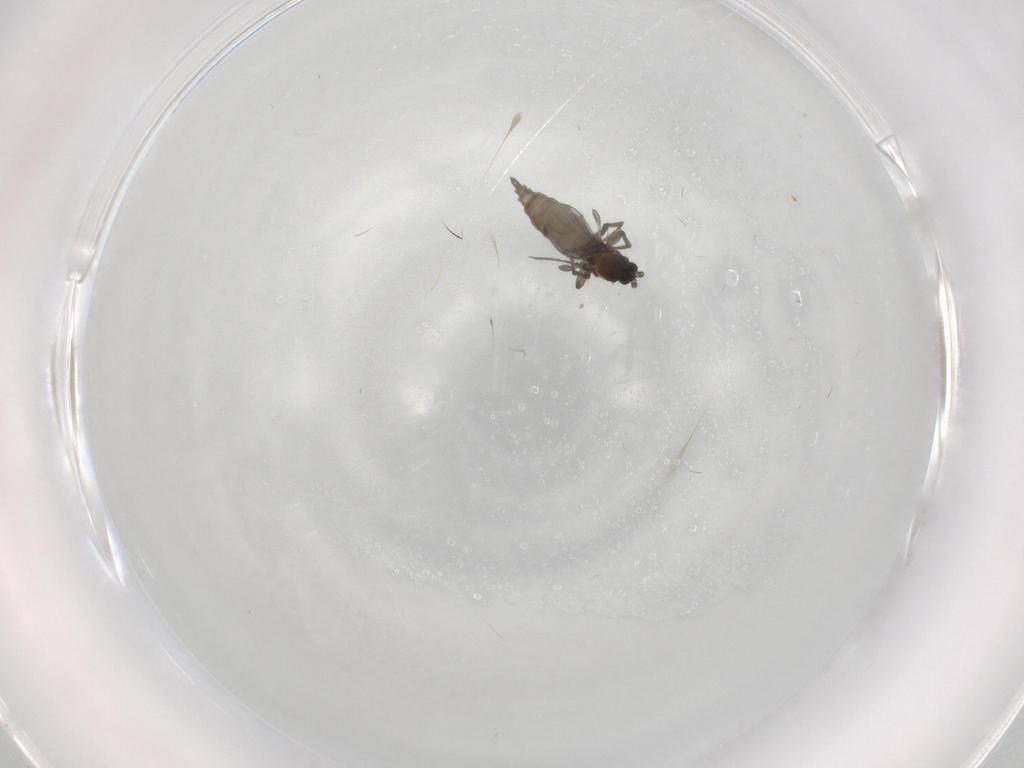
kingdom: Animalia
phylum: Arthropoda
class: Insecta
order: Diptera
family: Sciaridae
